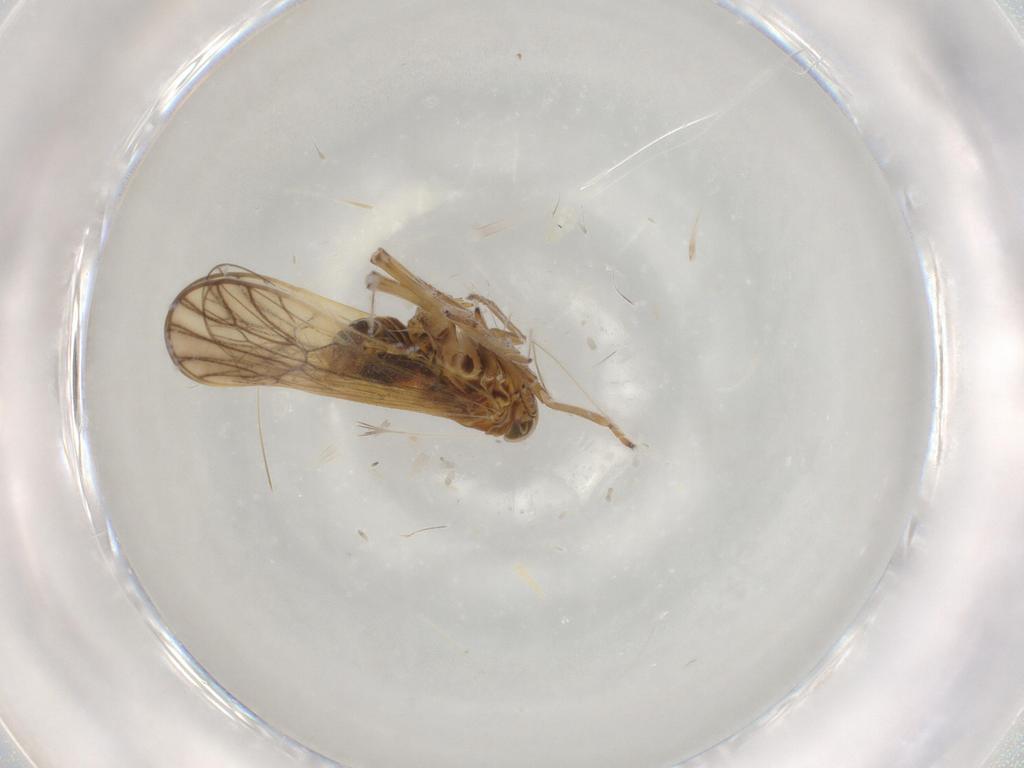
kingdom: Animalia
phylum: Arthropoda
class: Insecta
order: Hemiptera
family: Delphacidae
